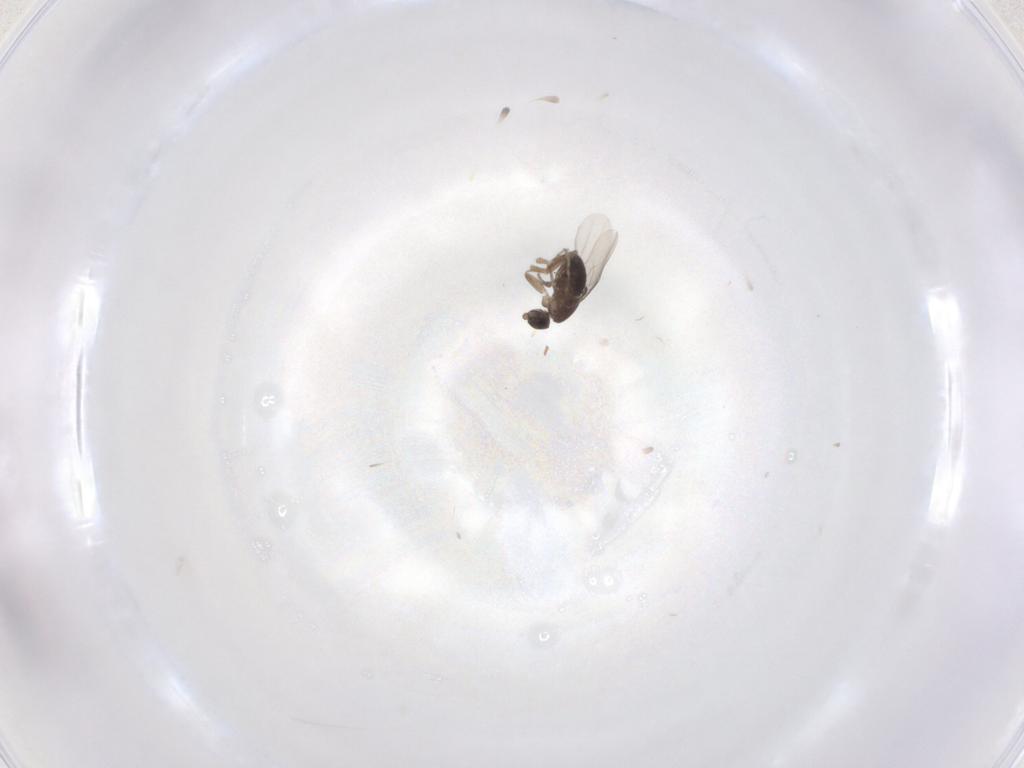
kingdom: Animalia
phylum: Arthropoda
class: Insecta
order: Diptera
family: Phoridae
